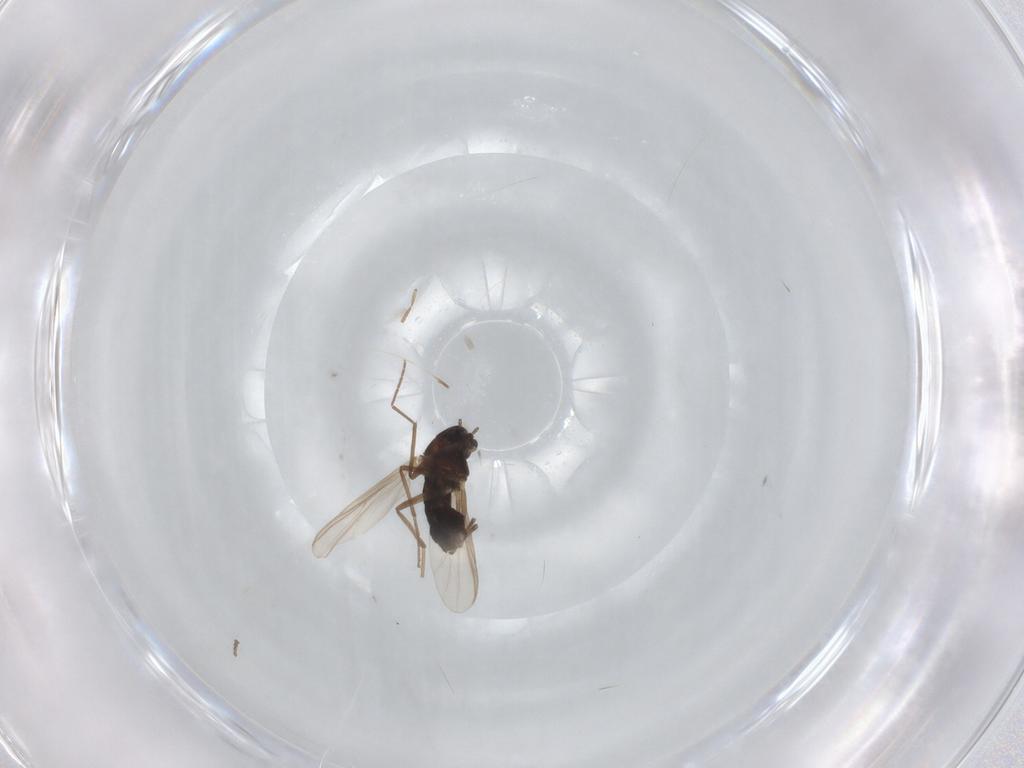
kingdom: Animalia
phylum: Arthropoda
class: Insecta
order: Diptera
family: Chironomidae
